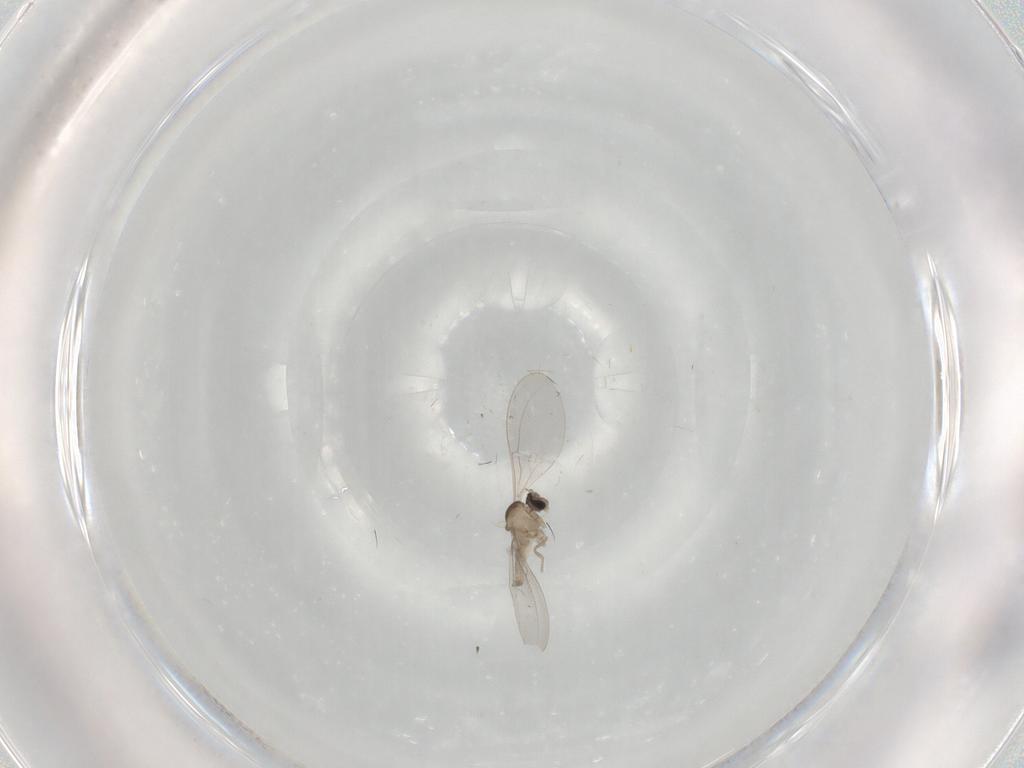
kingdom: Animalia
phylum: Arthropoda
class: Insecta
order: Diptera
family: Cecidomyiidae
